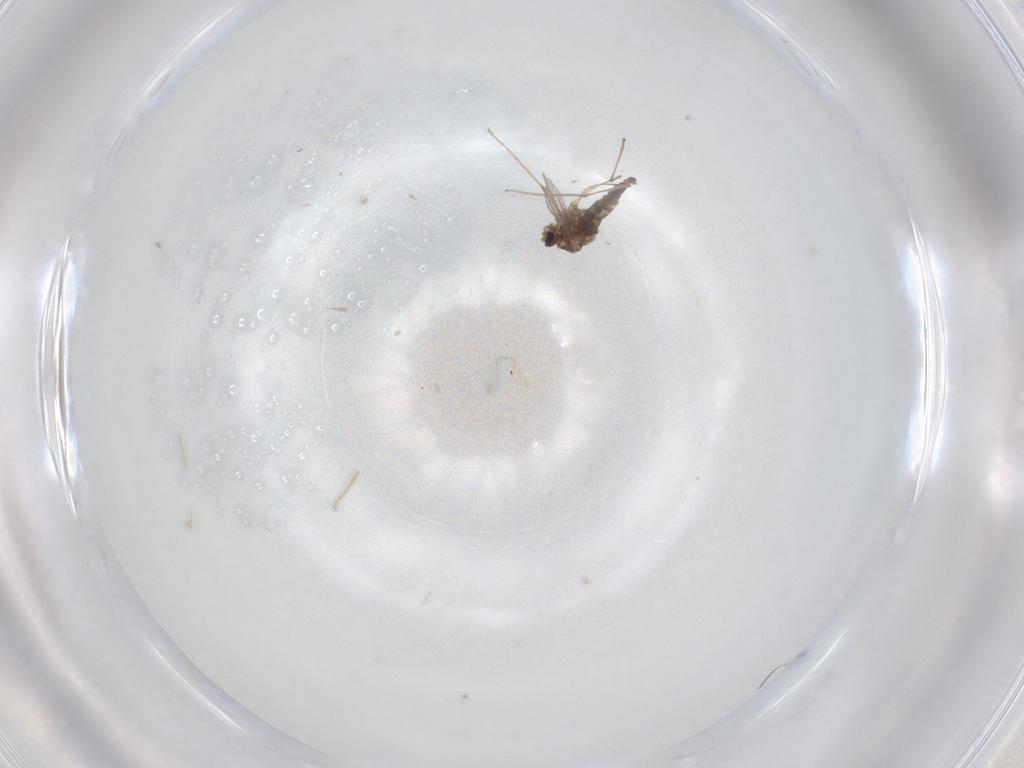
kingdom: Animalia
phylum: Arthropoda
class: Insecta
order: Diptera
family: Cecidomyiidae
